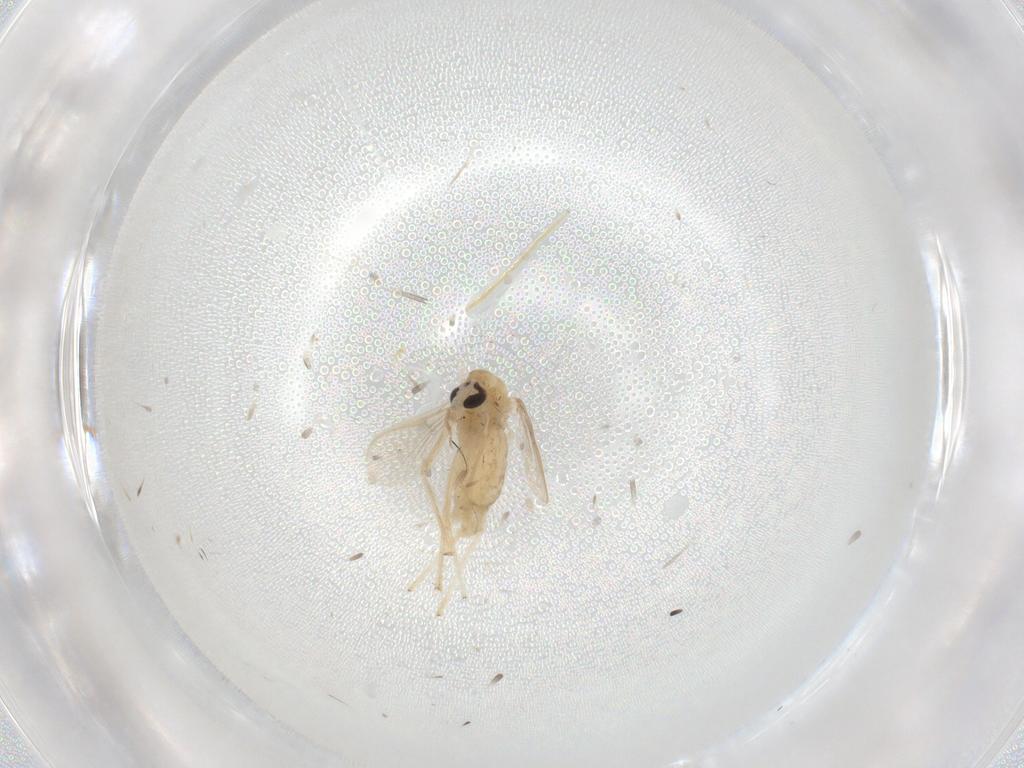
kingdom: Animalia
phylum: Arthropoda
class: Insecta
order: Diptera
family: Chironomidae
